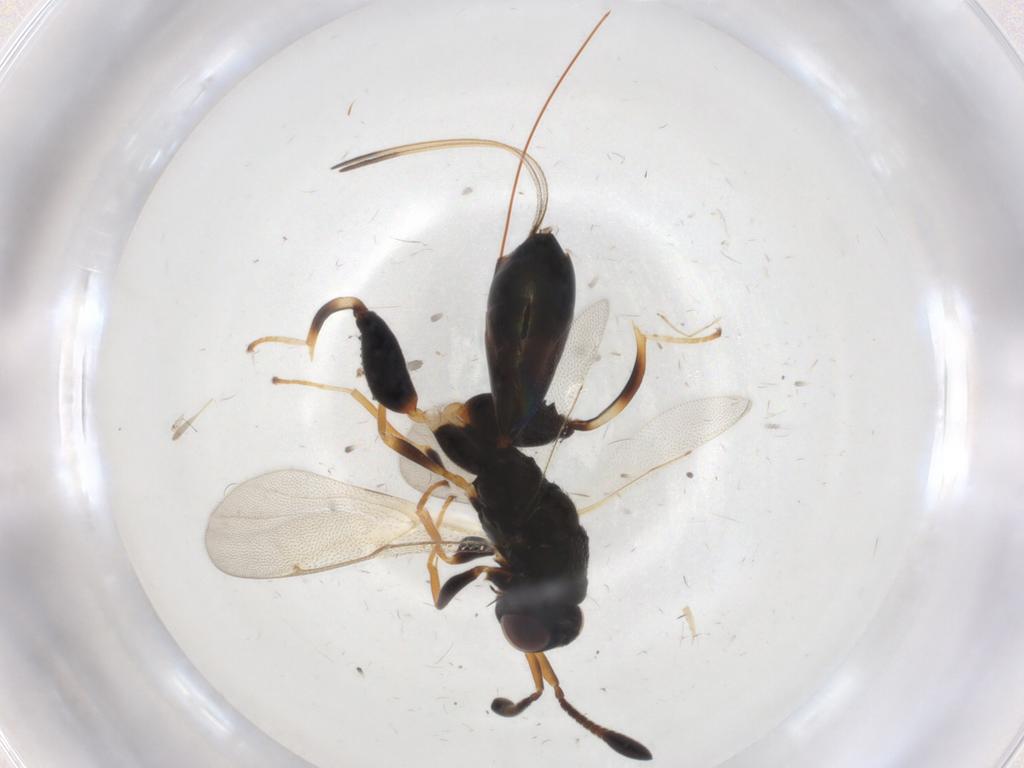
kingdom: Animalia
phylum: Arthropoda
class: Insecta
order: Hymenoptera
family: Torymidae
